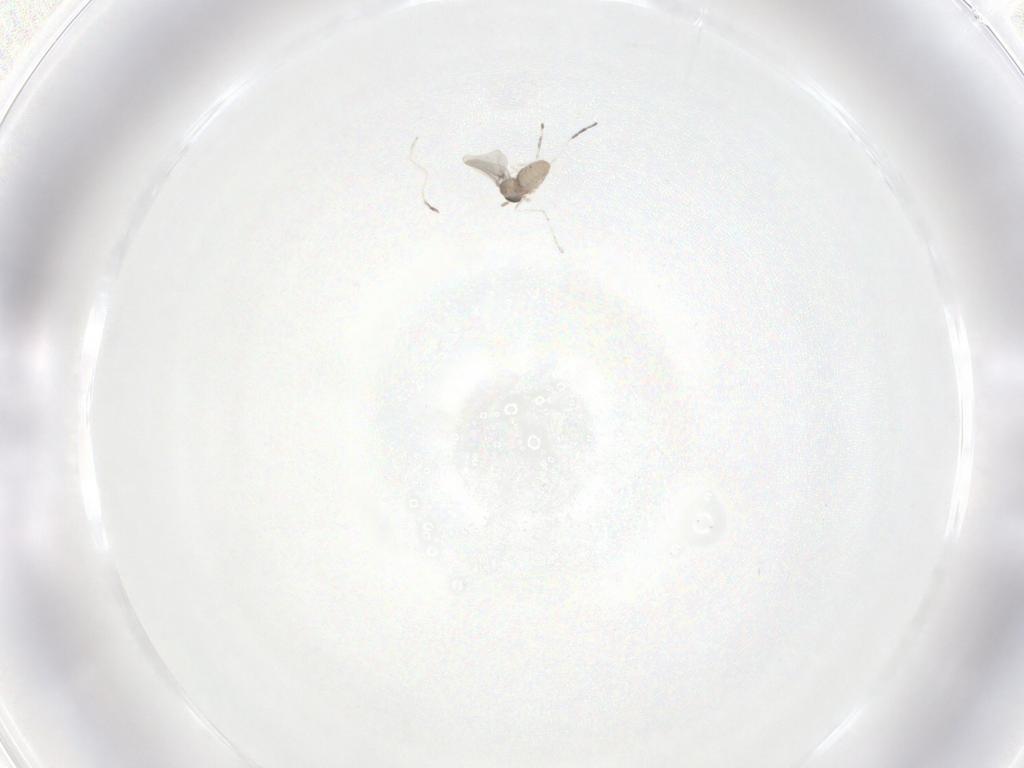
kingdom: Animalia
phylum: Arthropoda
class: Insecta
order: Diptera
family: Cecidomyiidae
